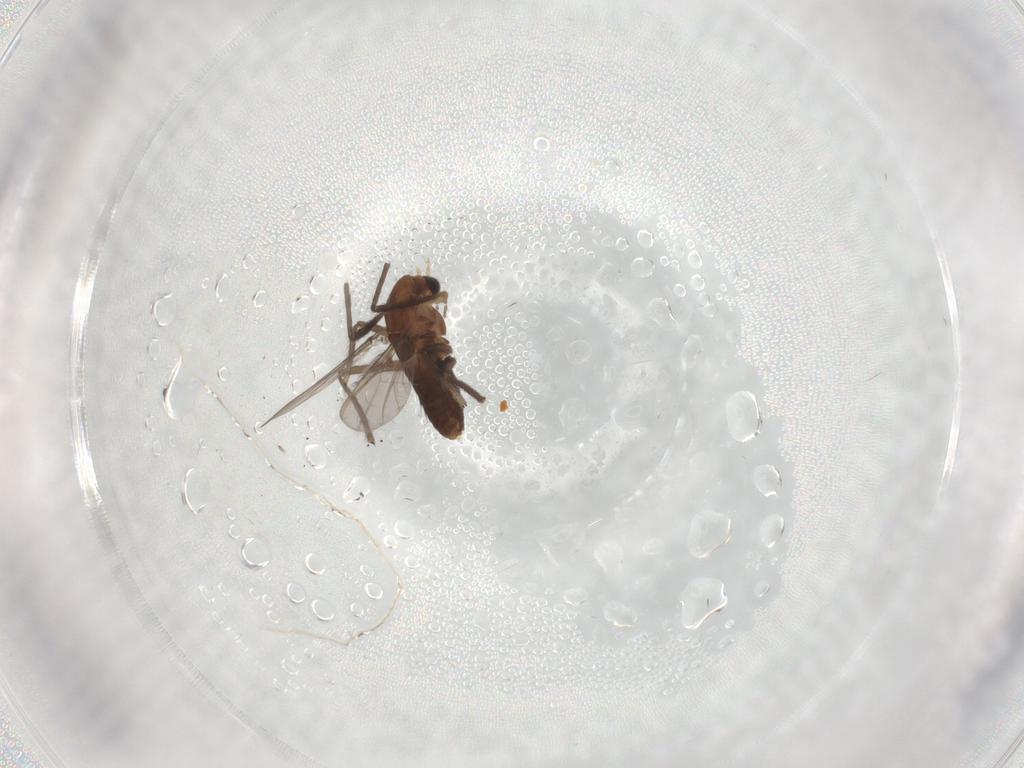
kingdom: Animalia
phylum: Arthropoda
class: Insecta
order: Diptera
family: Chironomidae
